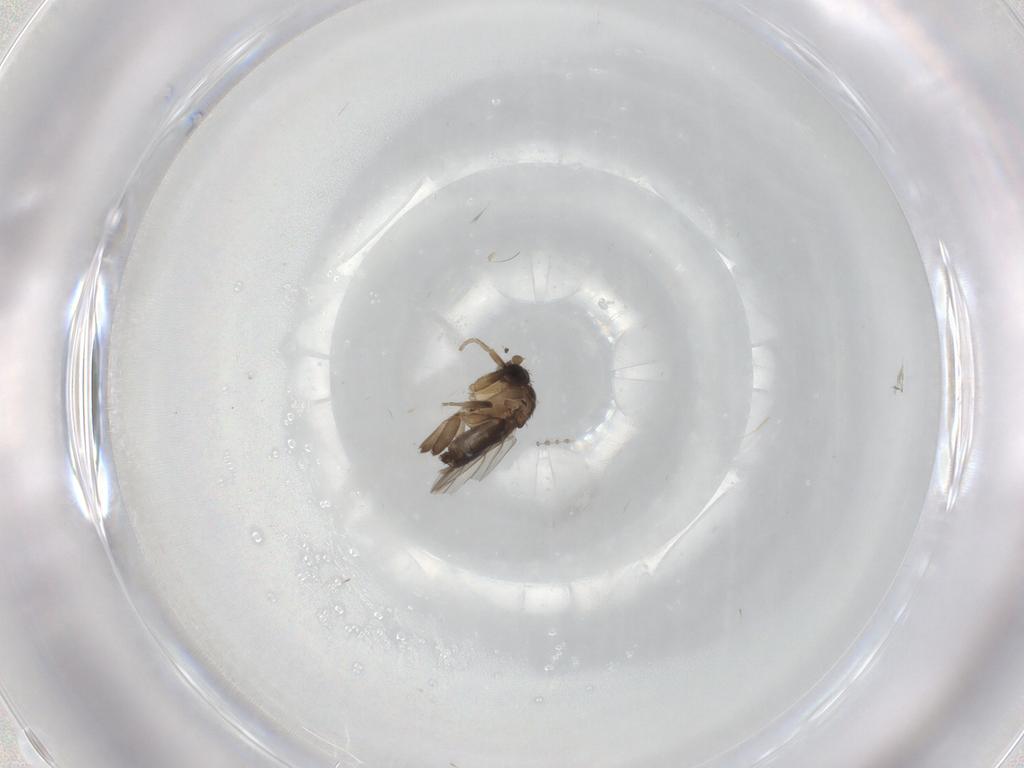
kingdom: Animalia
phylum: Arthropoda
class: Insecta
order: Diptera
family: Phoridae
